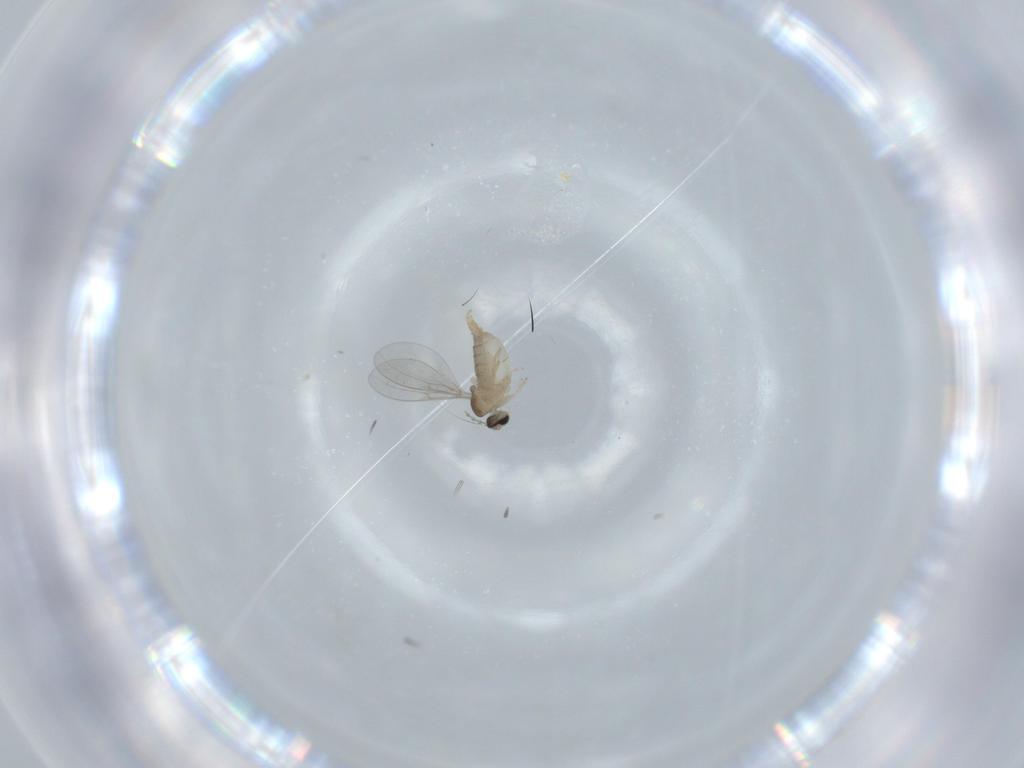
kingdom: Animalia
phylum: Arthropoda
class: Insecta
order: Diptera
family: Cecidomyiidae
